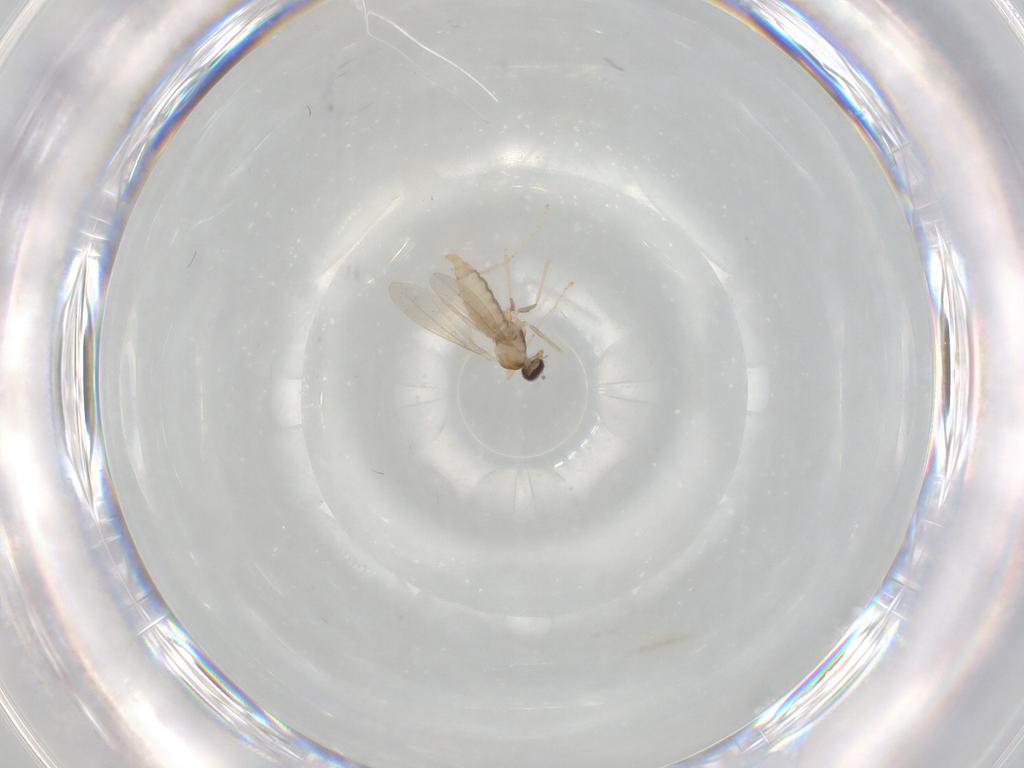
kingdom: Animalia
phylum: Arthropoda
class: Insecta
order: Diptera
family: Cecidomyiidae
